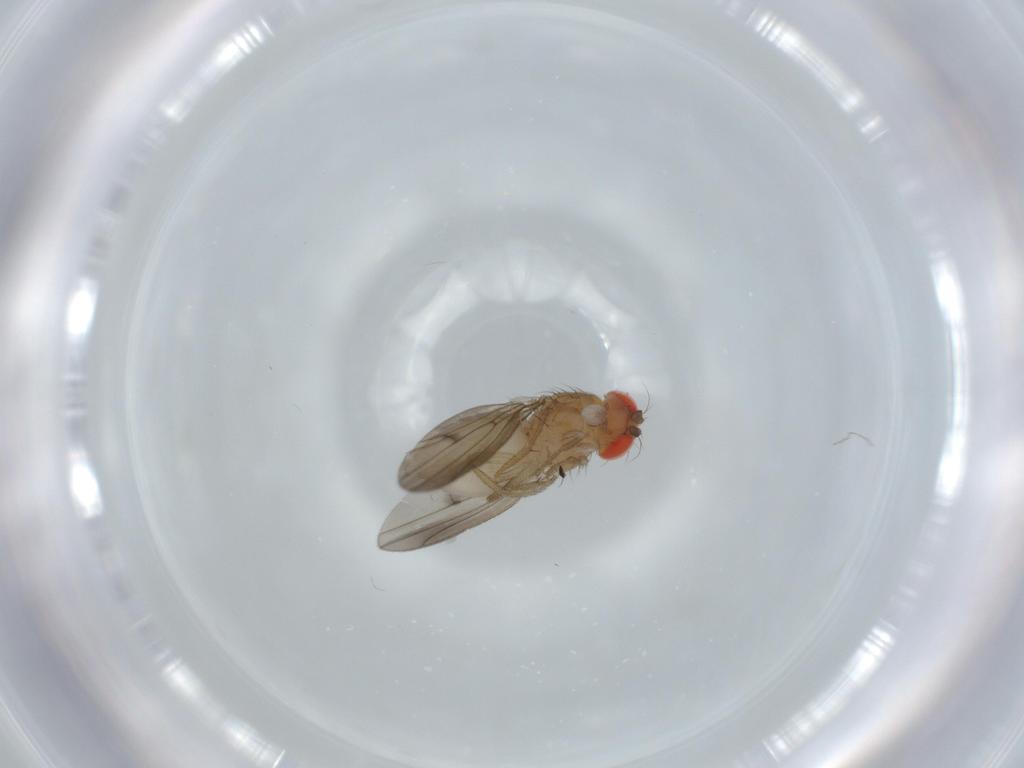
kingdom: Animalia
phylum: Arthropoda
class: Insecta
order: Diptera
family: Drosophilidae
